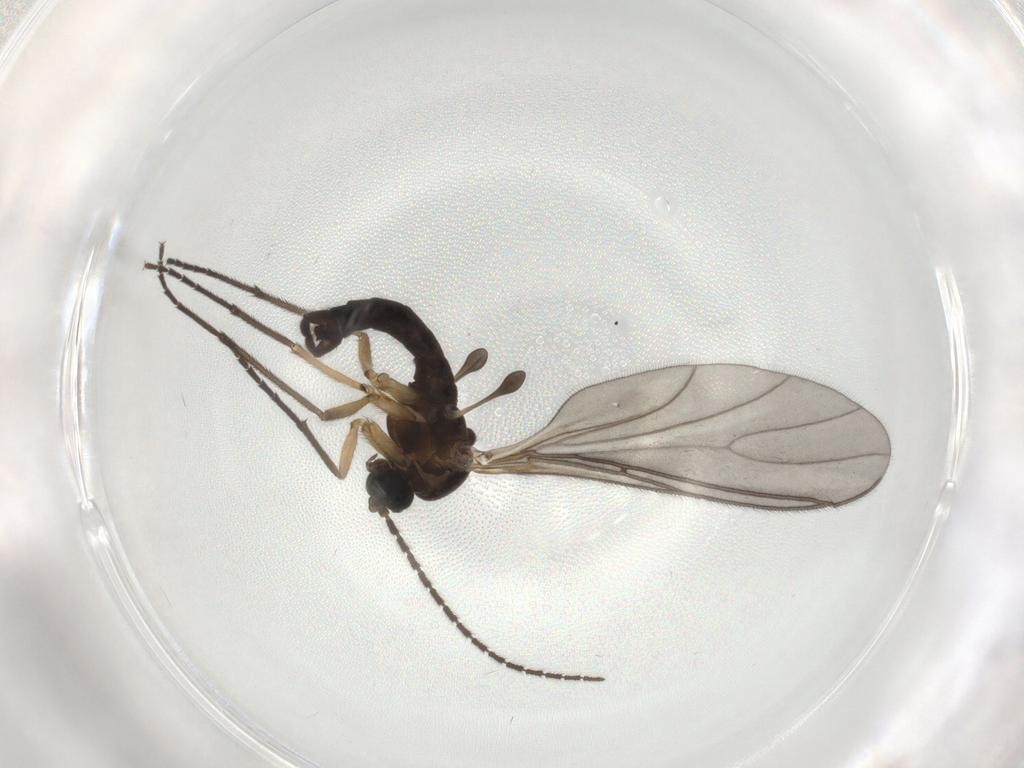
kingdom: Animalia
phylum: Arthropoda
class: Insecta
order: Diptera
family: Sciaridae
